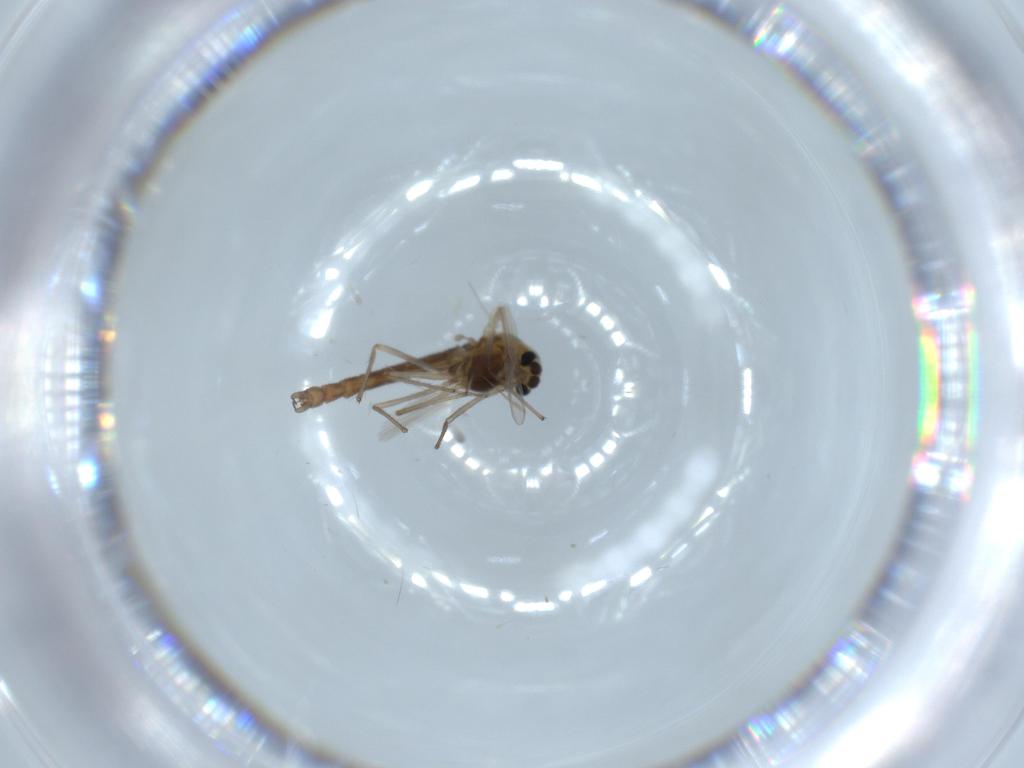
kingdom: Animalia
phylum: Arthropoda
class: Insecta
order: Diptera
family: Chironomidae
